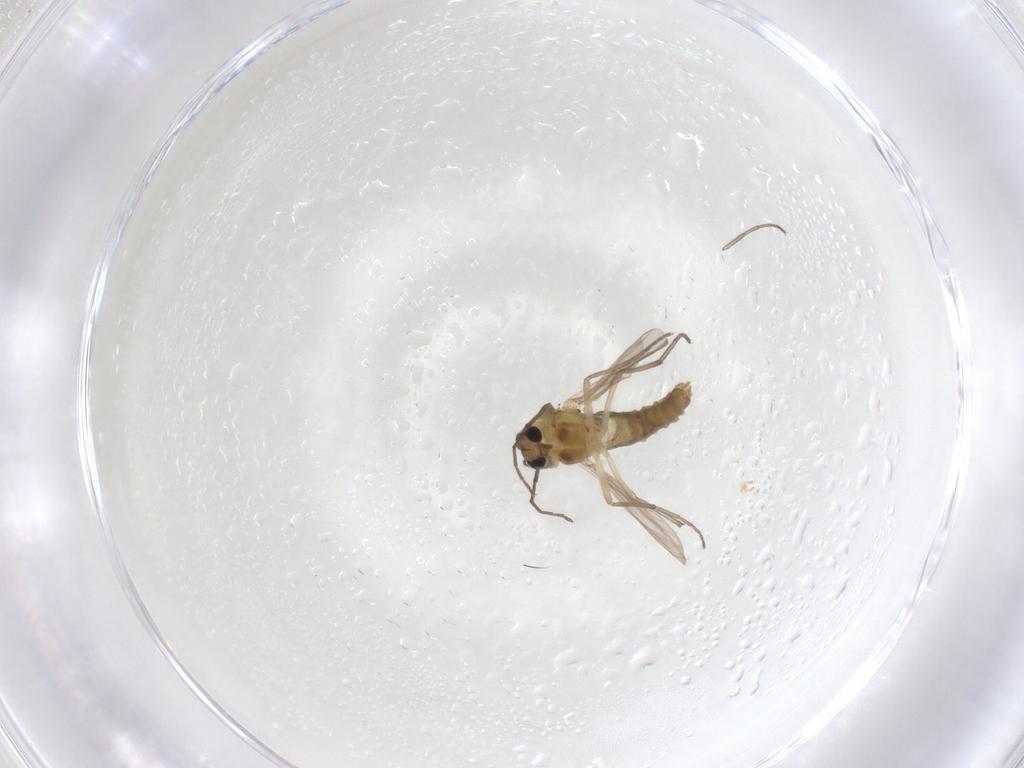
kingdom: Animalia
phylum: Arthropoda
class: Insecta
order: Diptera
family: Chironomidae
